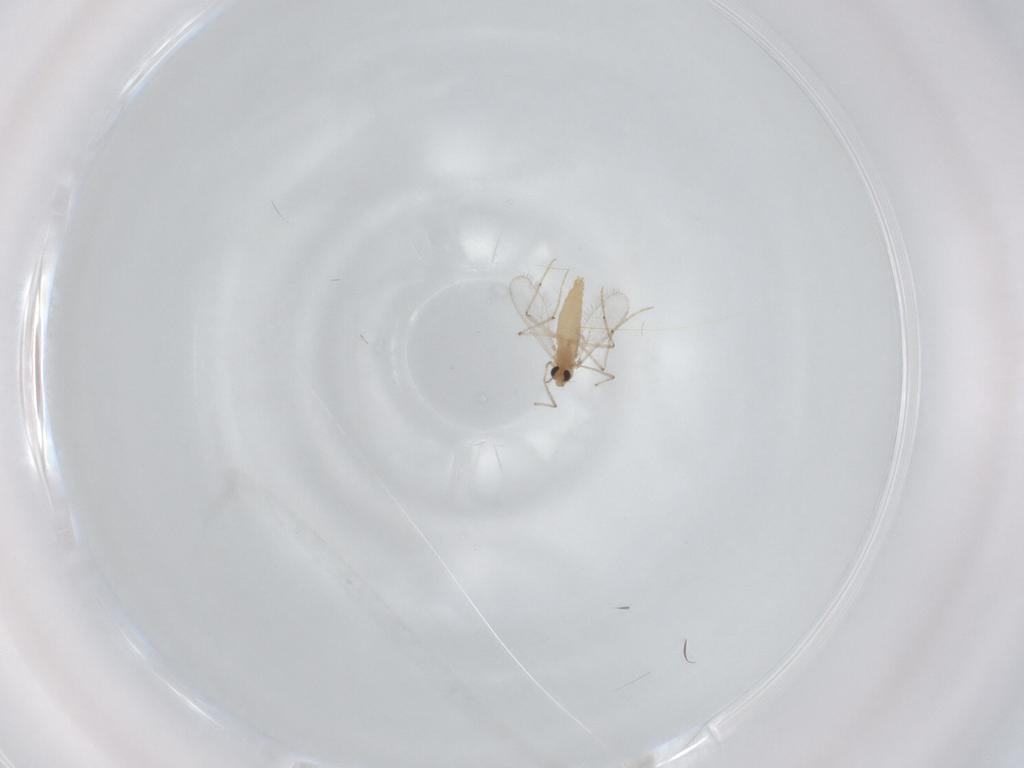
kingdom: Animalia
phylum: Arthropoda
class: Insecta
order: Diptera
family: Chironomidae
